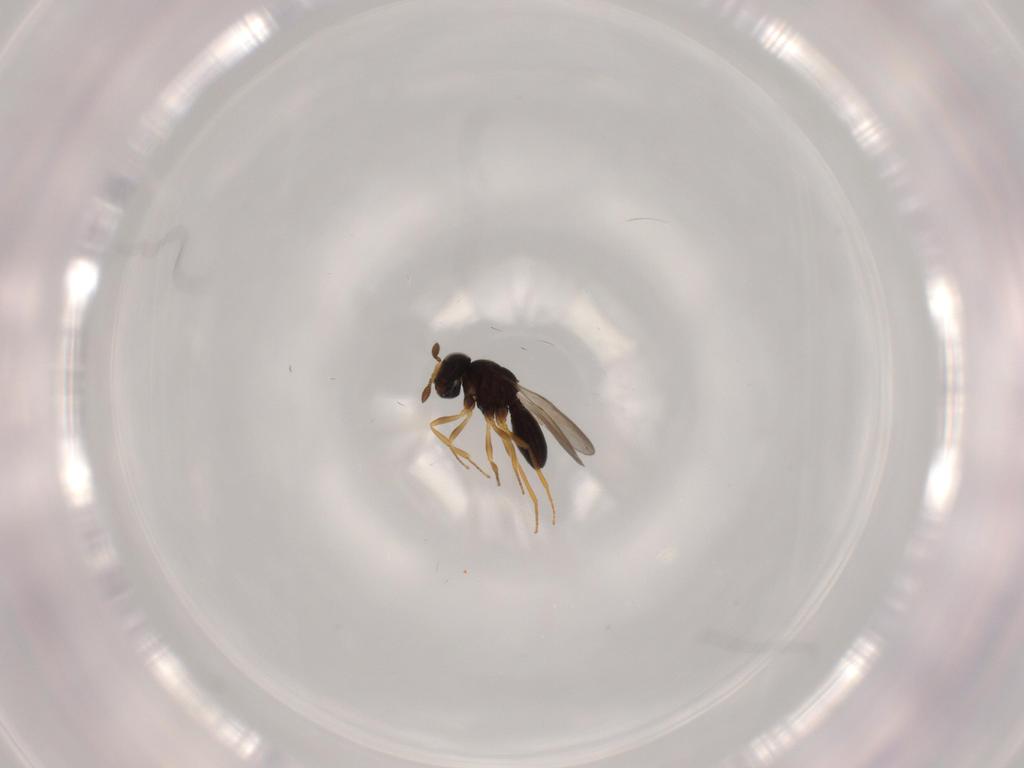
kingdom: Animalia
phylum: Arthropoda
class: Insecta
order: Hymenoptera
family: Scelionidae
